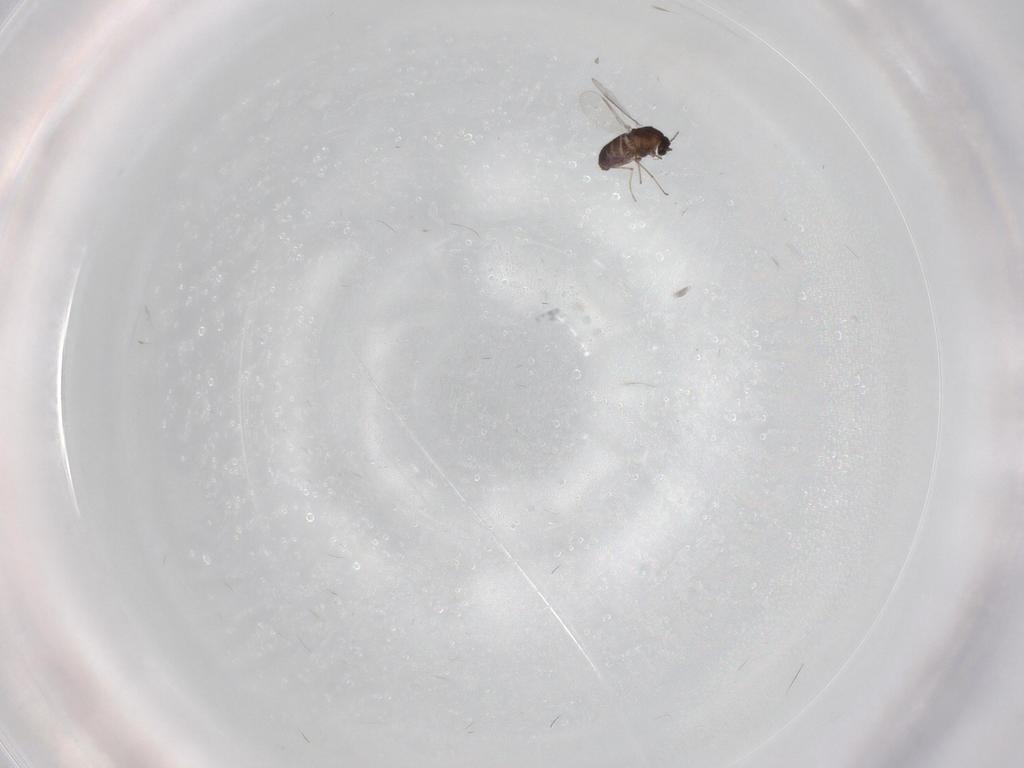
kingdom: Animalia
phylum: Arthropoda
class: Insecta
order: Diptera
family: Chironomidae
